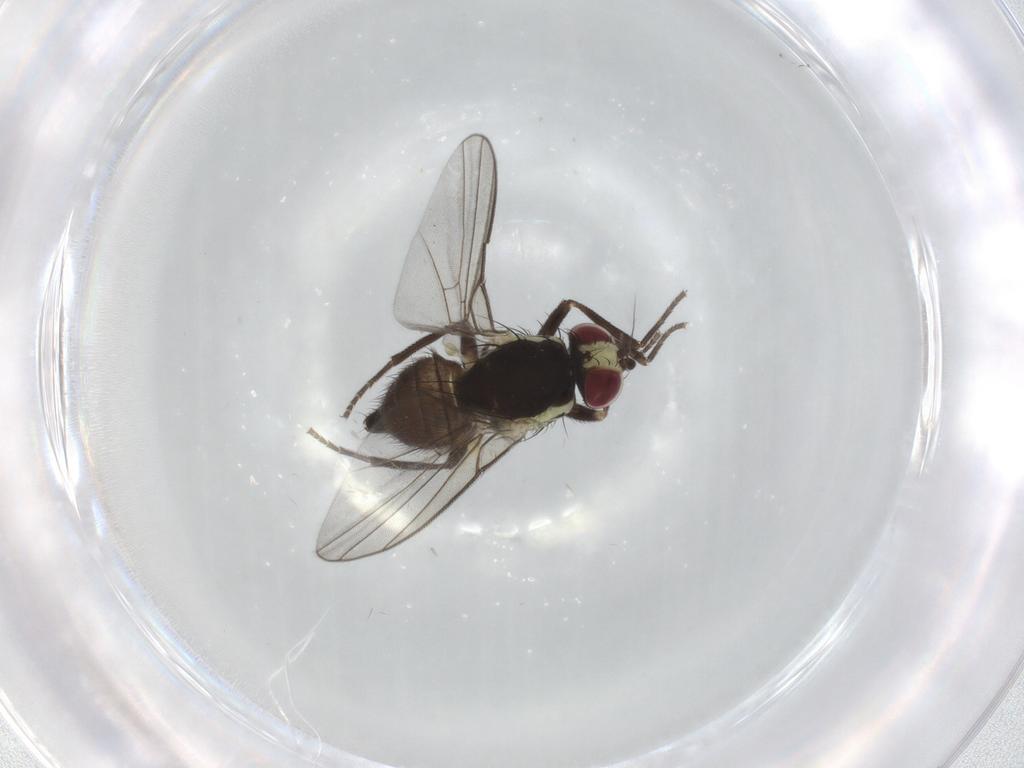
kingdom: Animalia
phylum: Arthropoda
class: Insecta
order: Diptera
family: Agromyzidae
